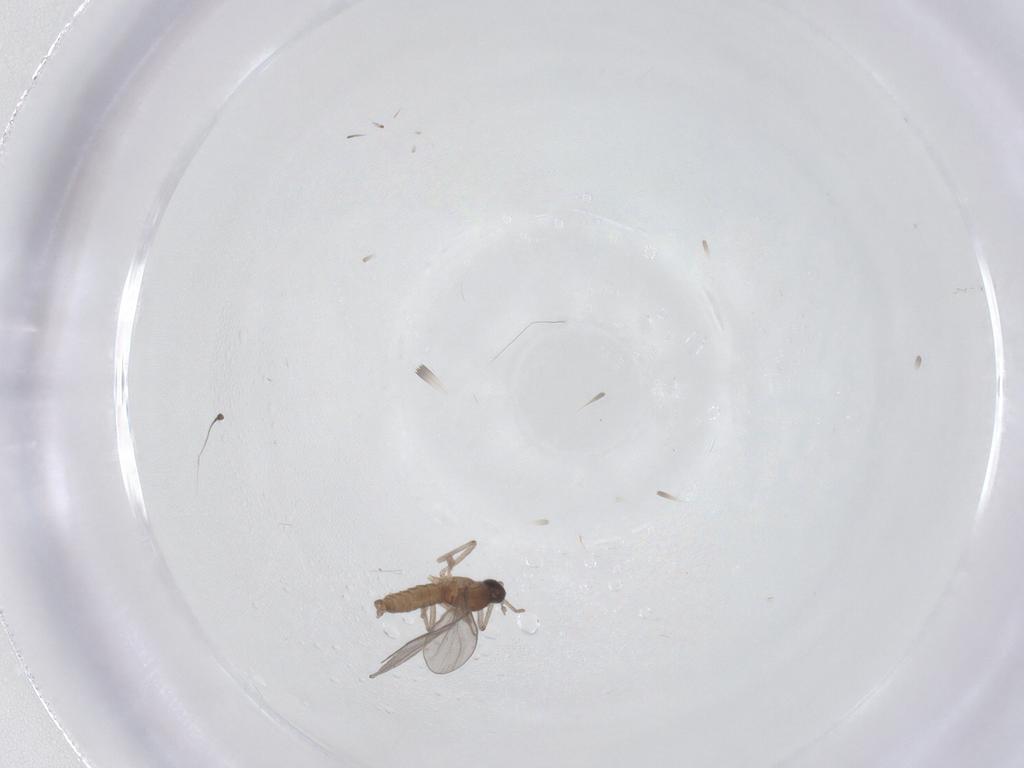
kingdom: Animalia
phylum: Arthropoda
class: Insecta
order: Diptera
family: Cecidomyiidae
